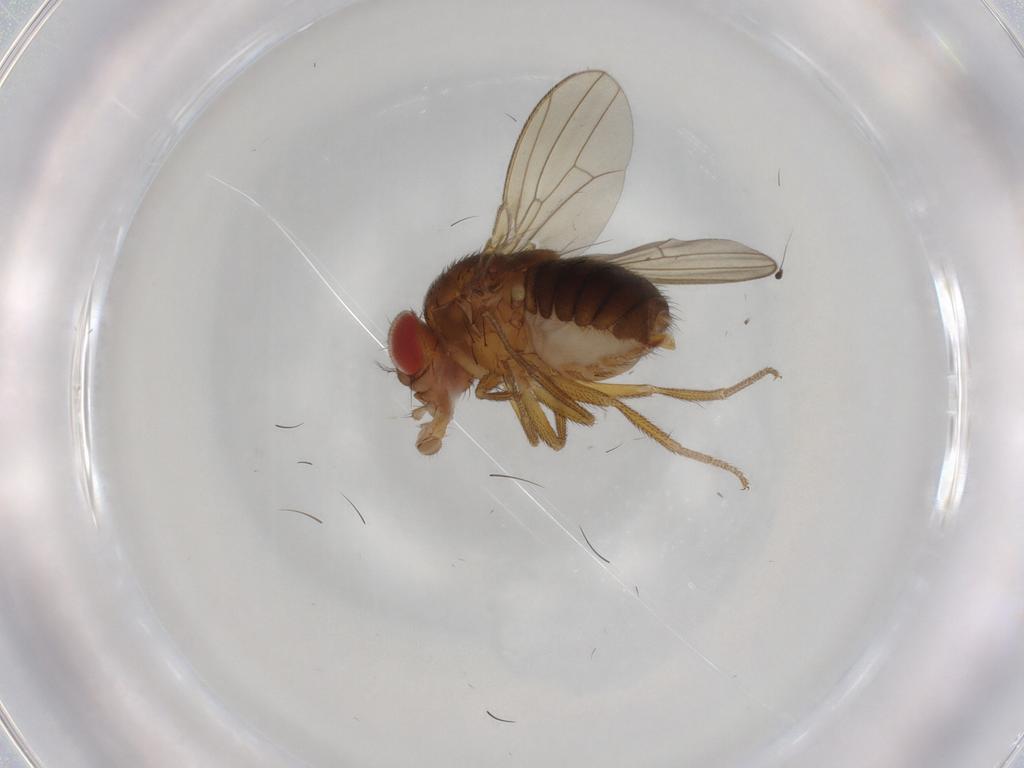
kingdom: Animalia
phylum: Arthropoda
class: Insecta
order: Diptera
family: Drosophilidae
